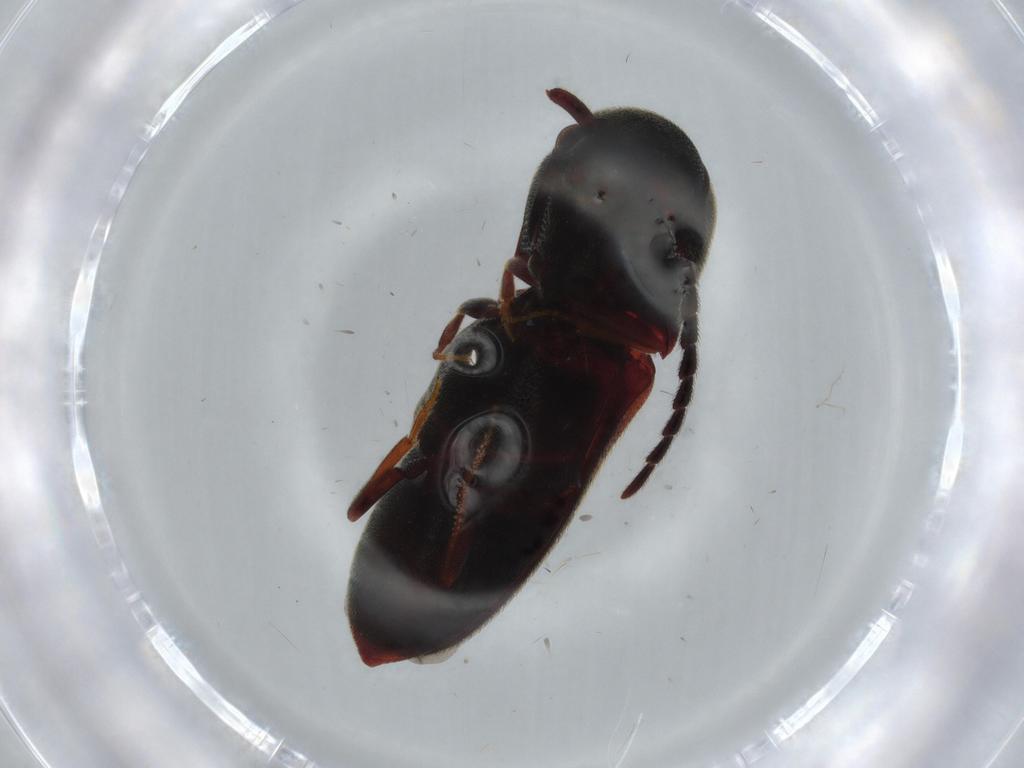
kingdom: Animalia
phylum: Arthropoda
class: Insecta
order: Coleoptera
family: Eucnemidae
